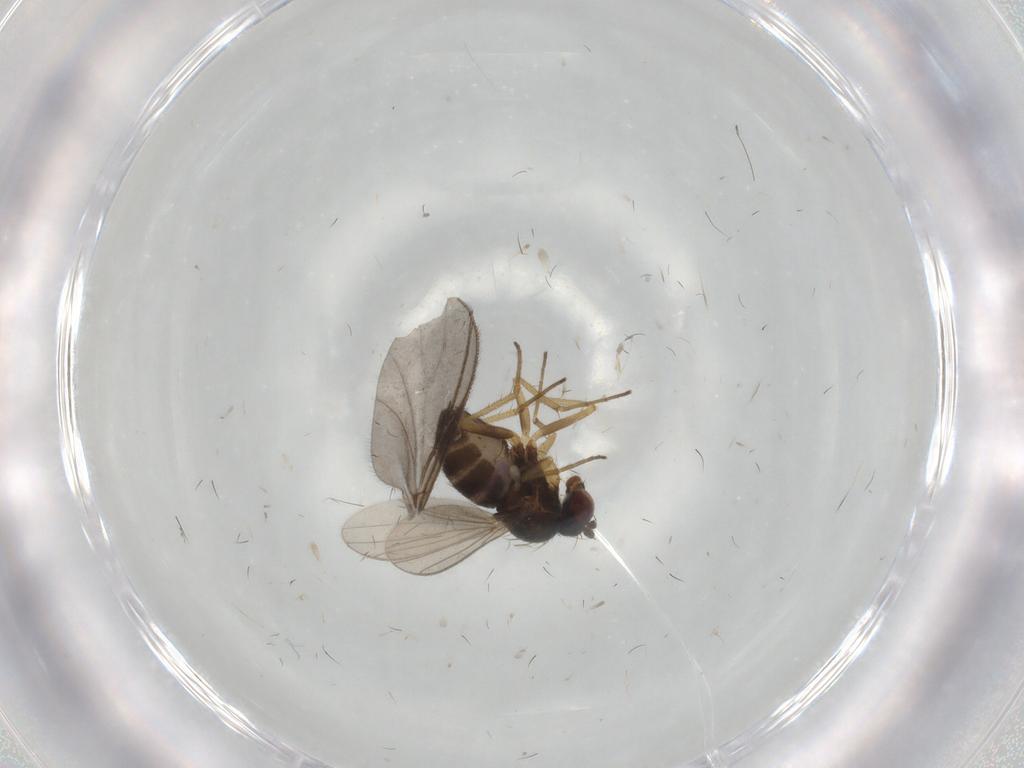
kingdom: Animalia
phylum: Arthropoda
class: Insecta
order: Diptera
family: Dolichopodidae
